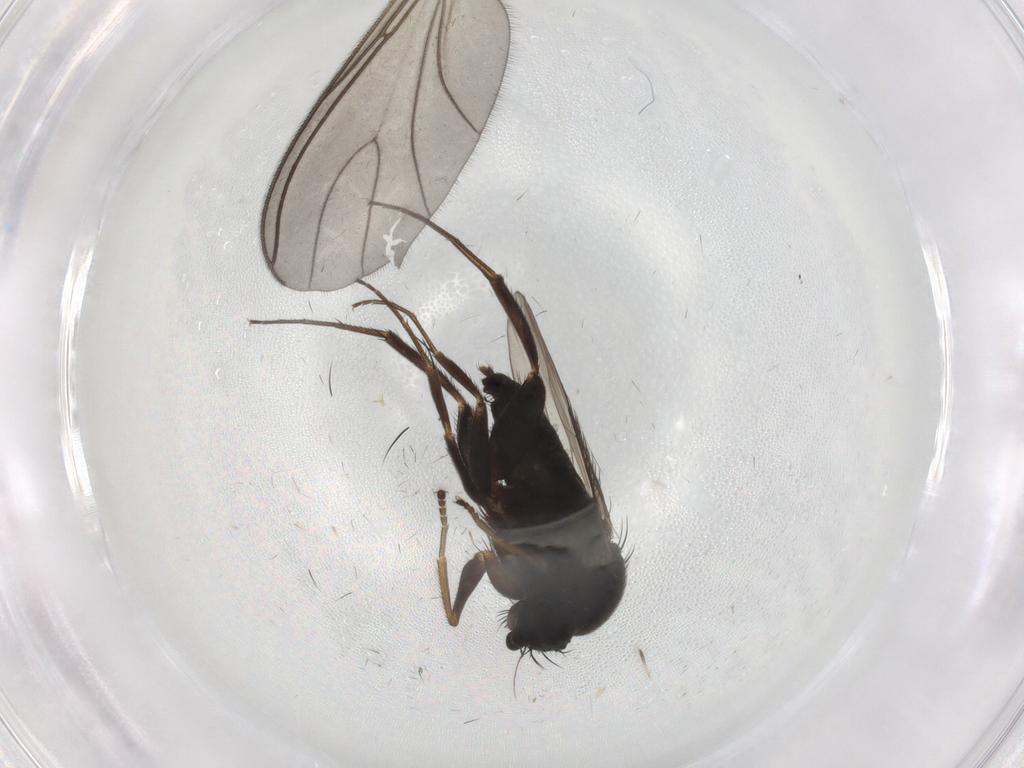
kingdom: Animalia
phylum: Arthropoda
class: Insecta
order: Diptera
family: Phoridae
